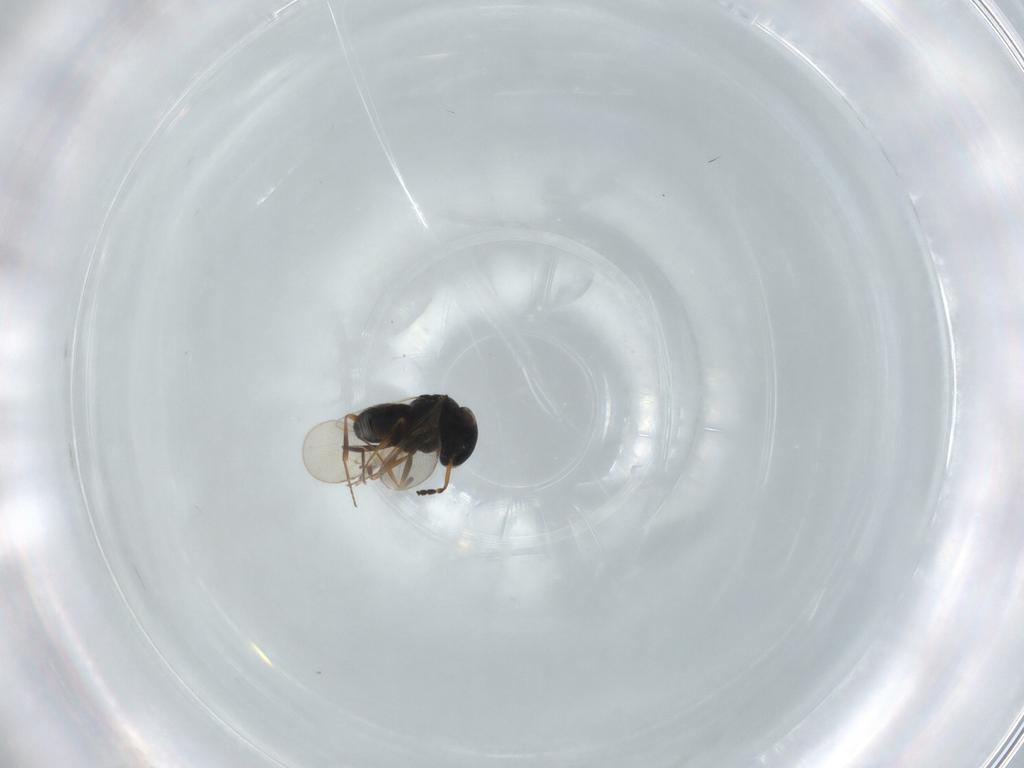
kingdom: Animalia
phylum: Arthropoda
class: Insecta
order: Hymenoptera
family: Scelionidae
